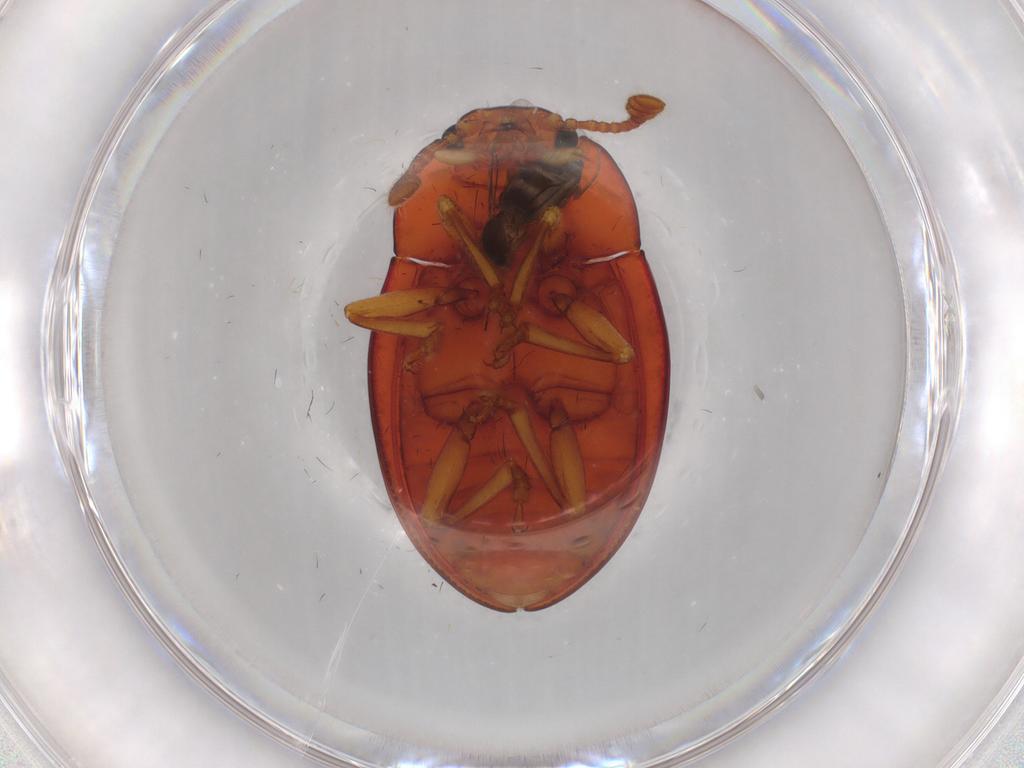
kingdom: Animalia
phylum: Arthropoda
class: Insecta
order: Coleoptera
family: Erotylidae
